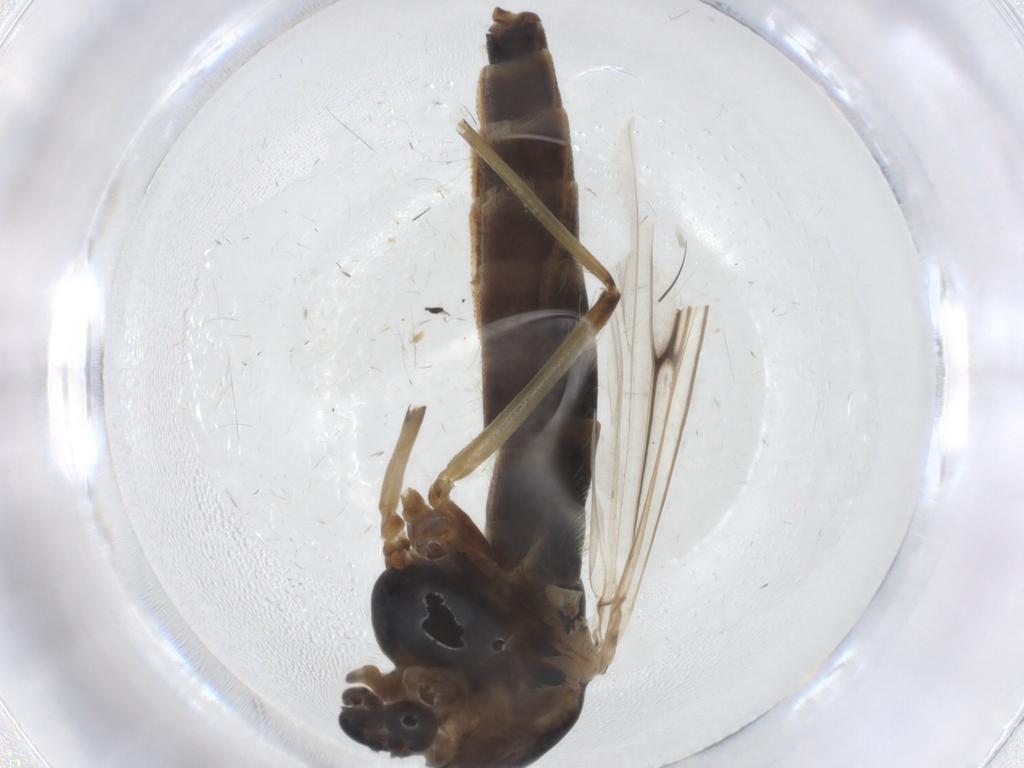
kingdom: Animalia
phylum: Arthropoda
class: Insecta
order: Diptera
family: Chironomidae
